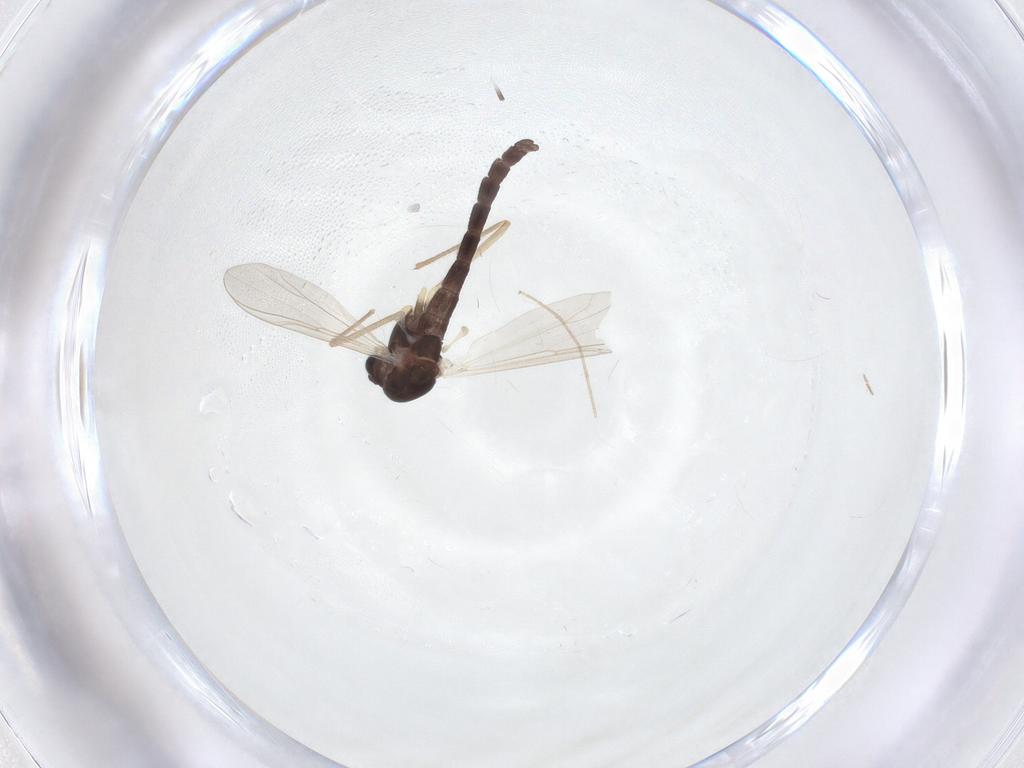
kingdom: Animalia
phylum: Arthropoda
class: Insecta
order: Diptera
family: Chironomidae
